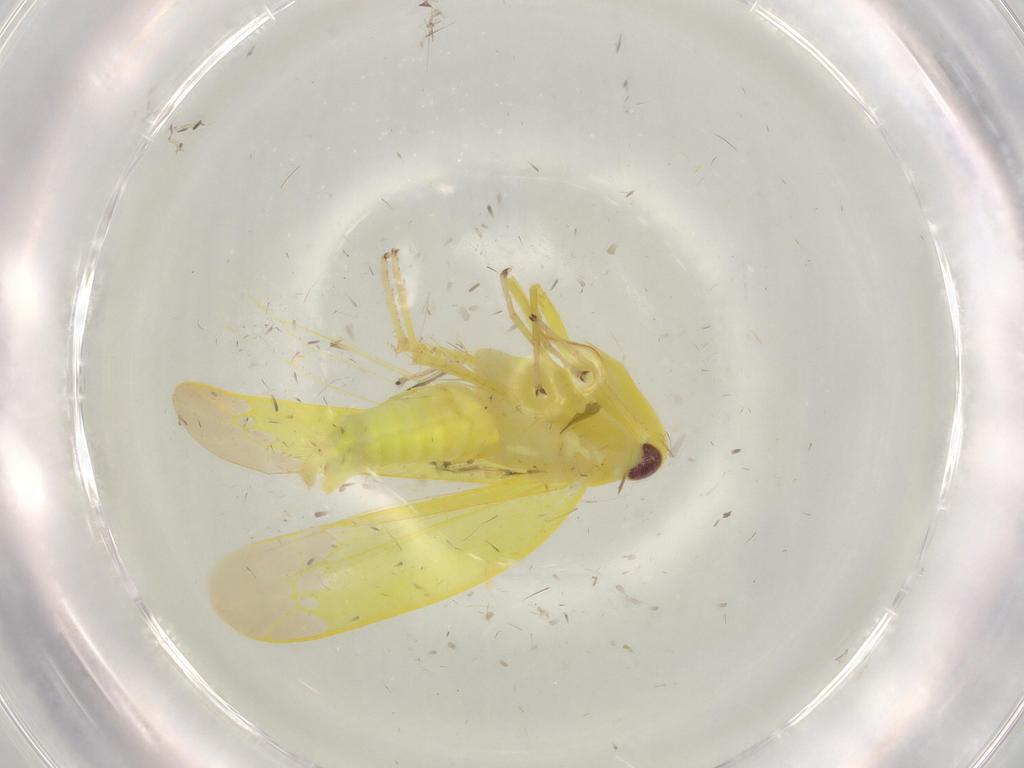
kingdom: Animalia
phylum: Arthropoda
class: Insecta
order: Hemiptera
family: Cicadellidae
